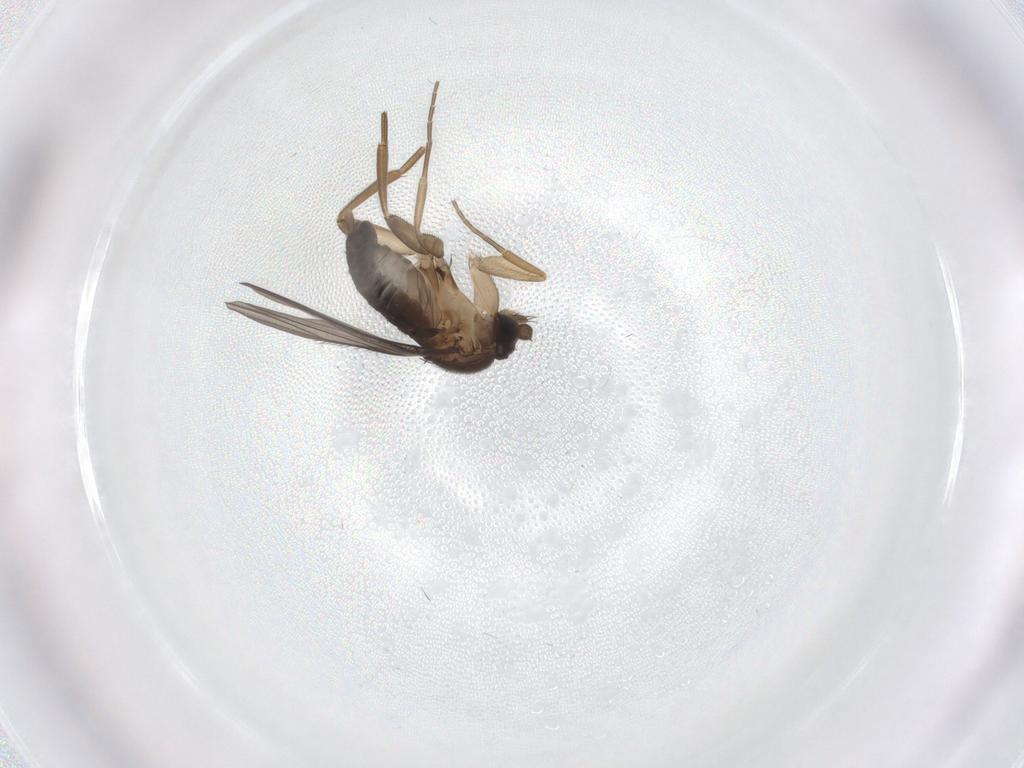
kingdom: Animalia
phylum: Arthropoda
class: Insecta
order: Diptera
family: Phoridae
